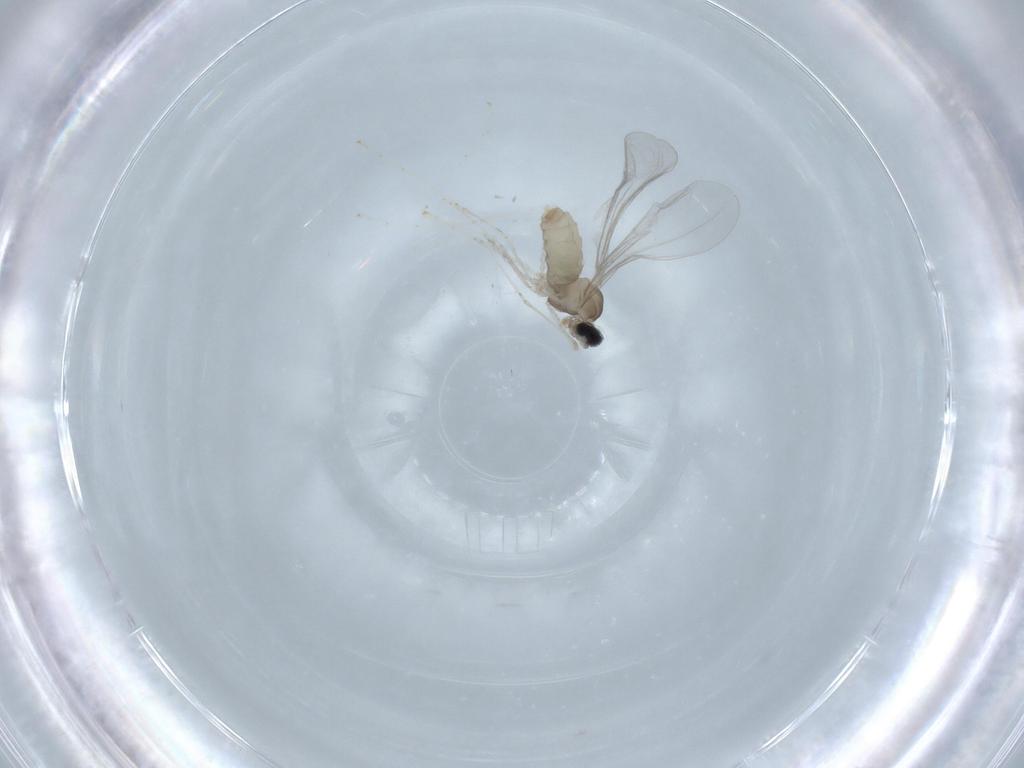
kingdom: Animalia
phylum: Arthropoda
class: Insecta
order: Diptera
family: Cecidomyiidae
